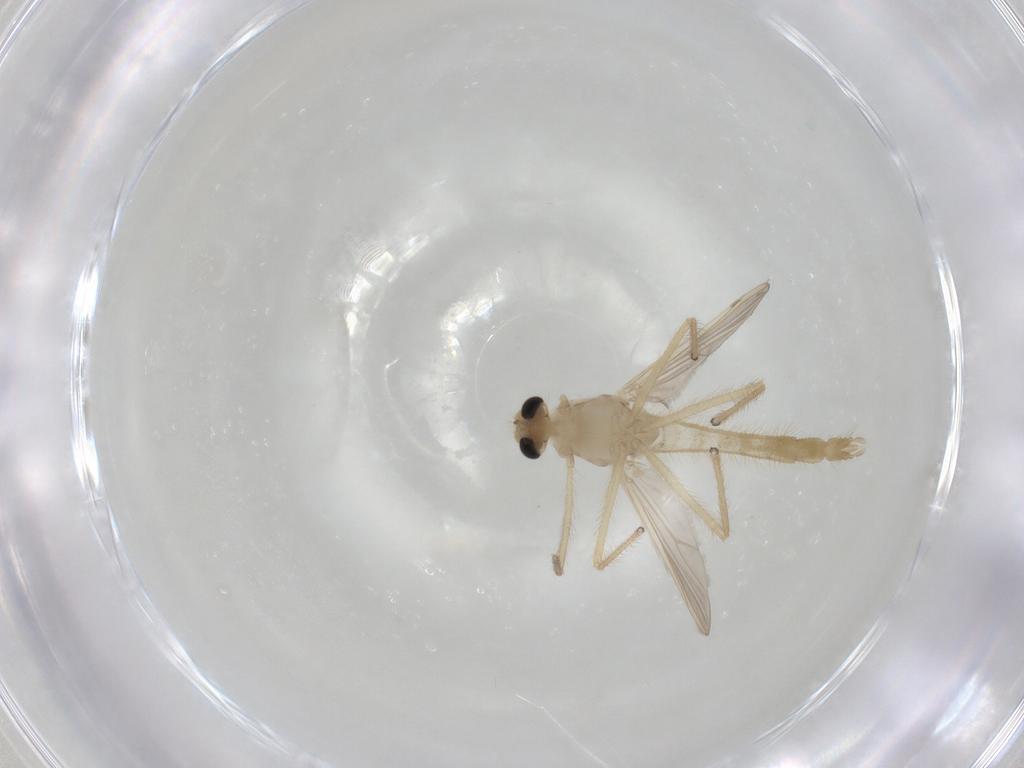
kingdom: Animalia
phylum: Arthropoda
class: Insecta
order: Diptera
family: Chironomidae
